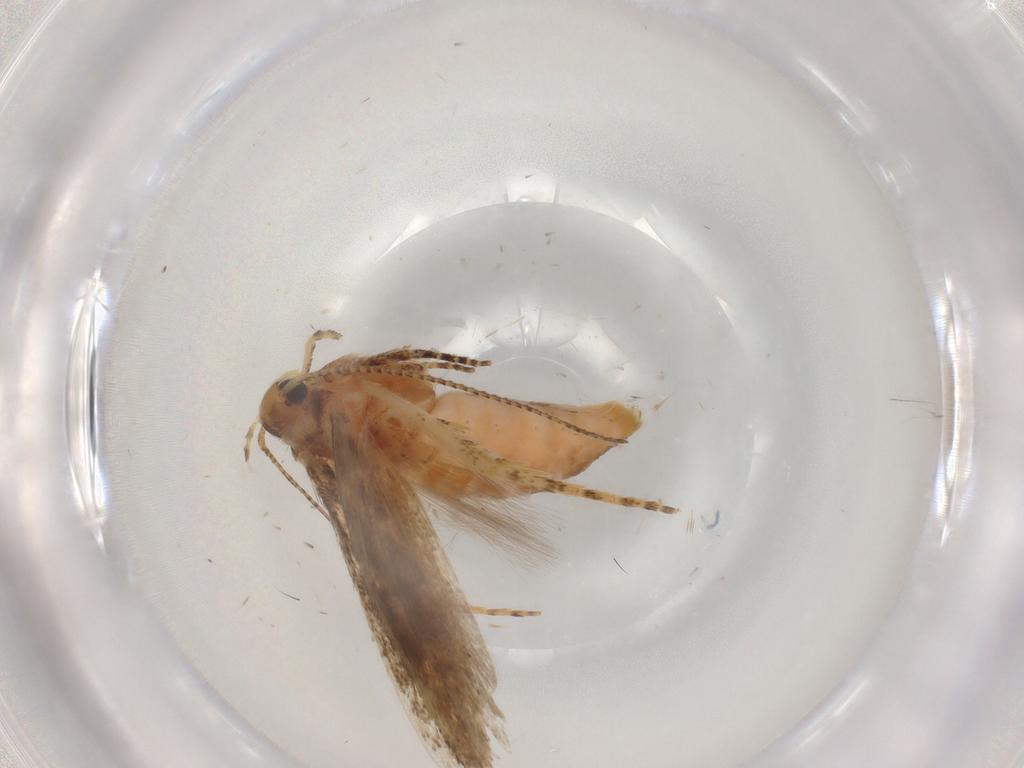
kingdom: Animalia
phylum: Arthropoda
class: Insecta
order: Lepidoptera
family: Gelechiidae
